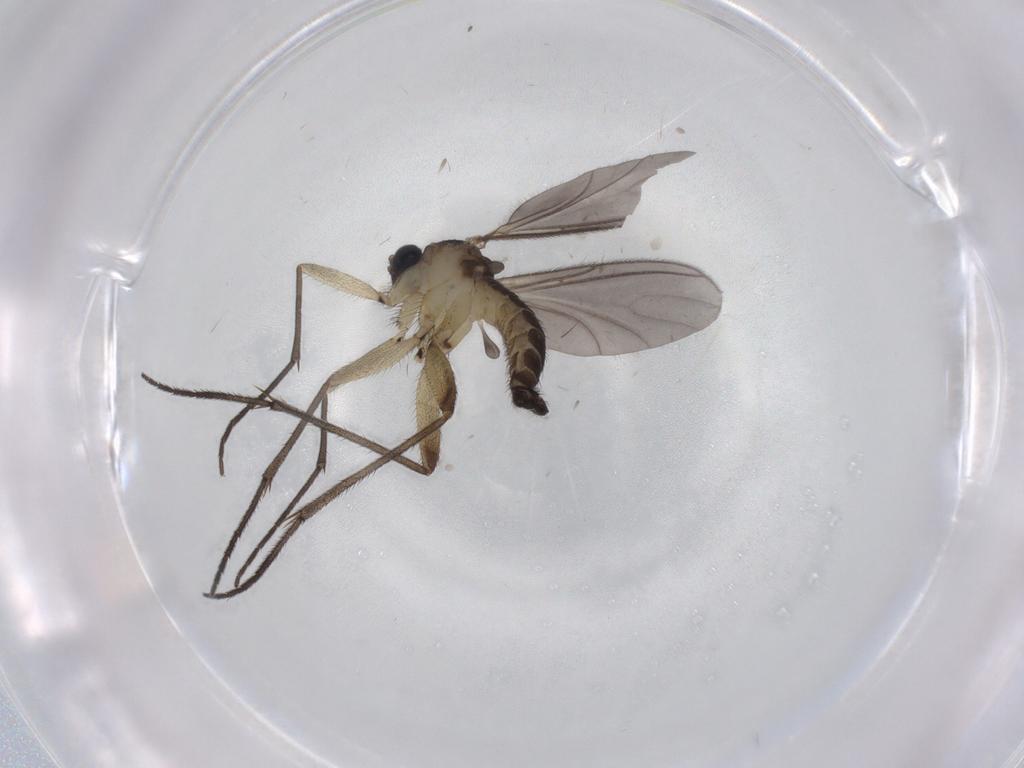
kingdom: Animalia
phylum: Arthropoda
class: Insecta
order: Diptera
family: Sciaridae
